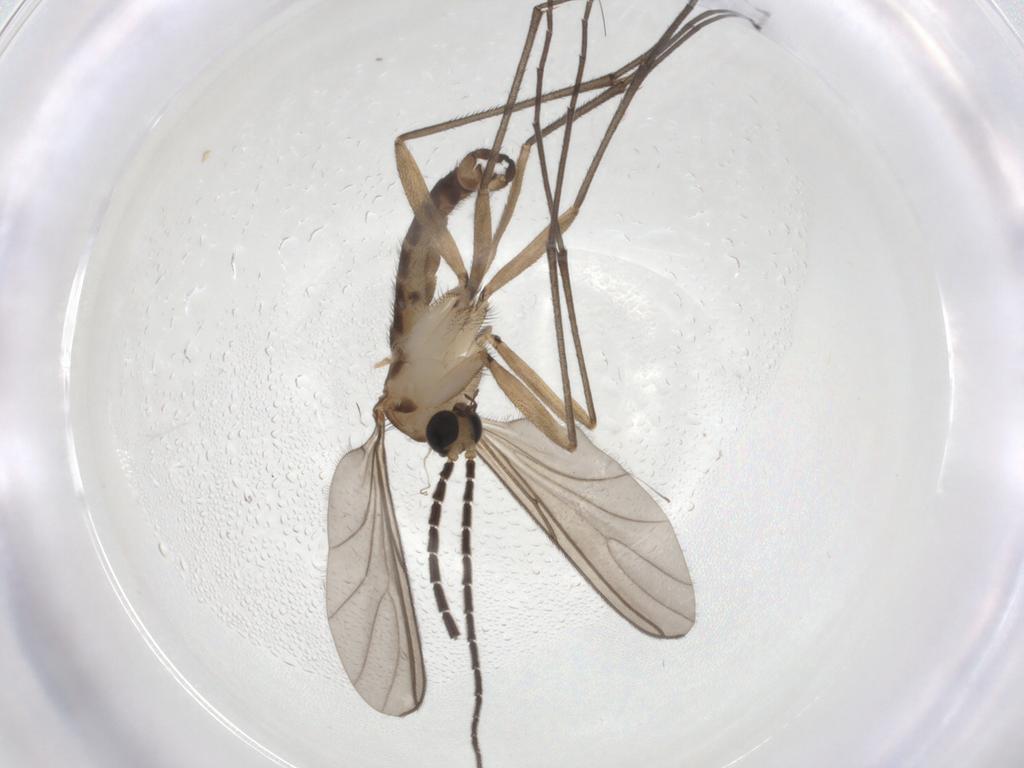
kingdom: Animalia
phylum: Arthropoda
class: Insecta
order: Diptera
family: Sciaridae
